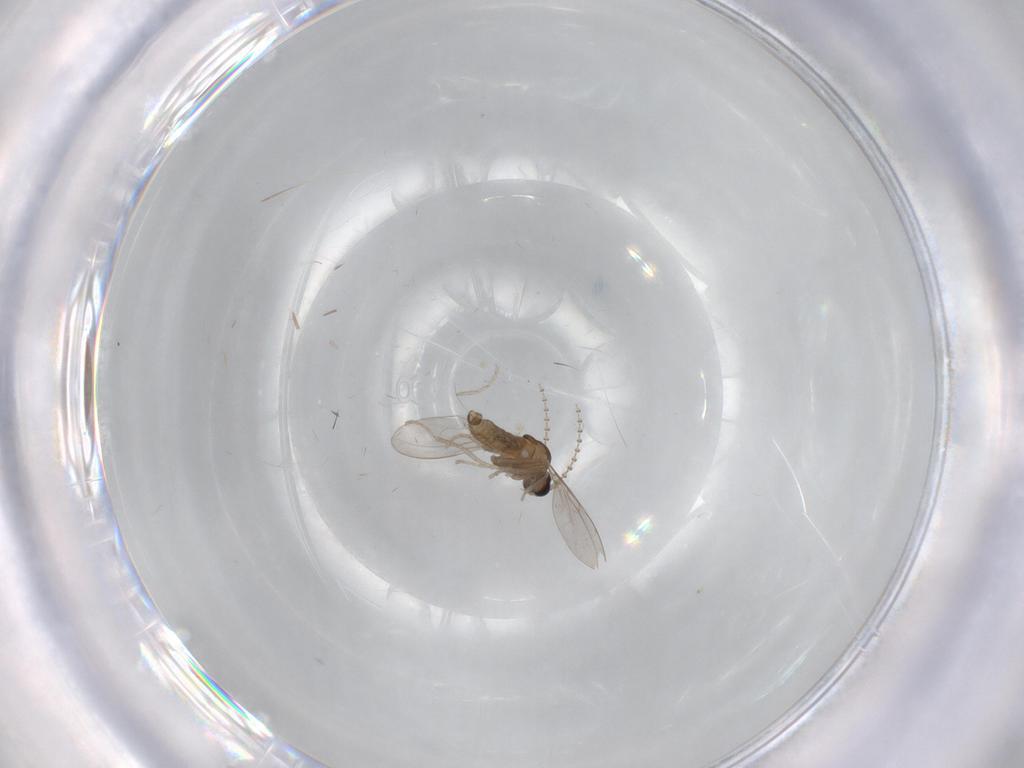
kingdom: Animalia
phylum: Arthropoda
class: Insecta
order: Diptera
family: Cecidomyiidae
